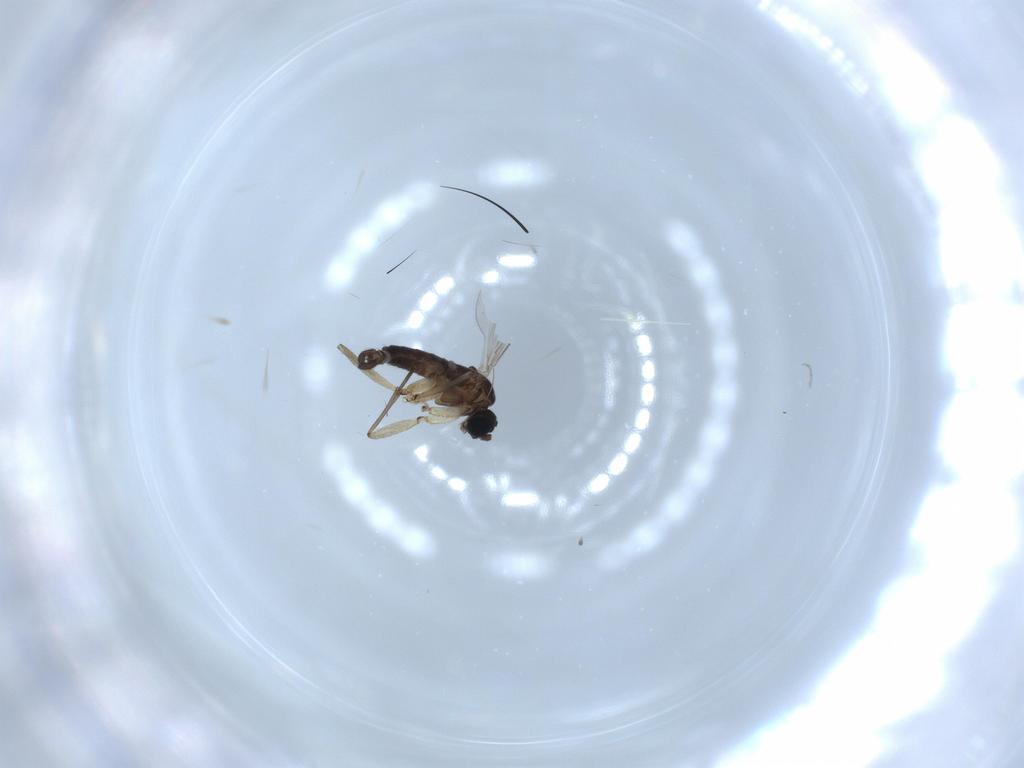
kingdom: Animalia
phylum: Arthropoda
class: Insecta
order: Diptera
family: Sciaridae
